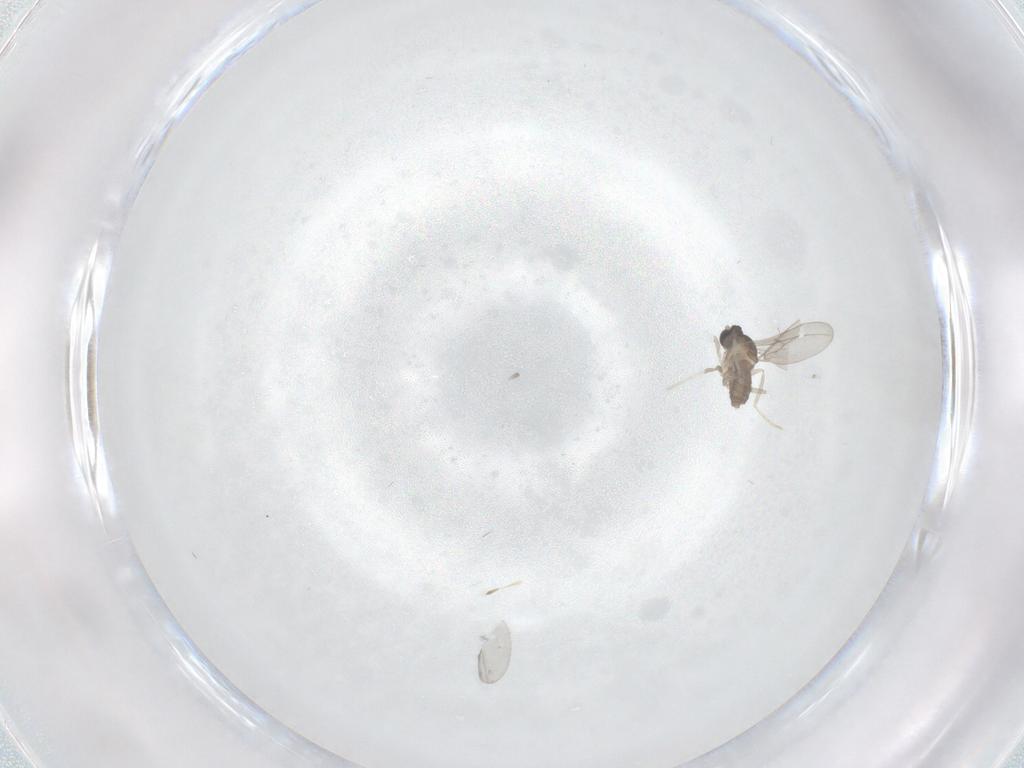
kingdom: Animalia
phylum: Arthropoda
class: Insecta
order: Diptera
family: Cecidomyiidae
